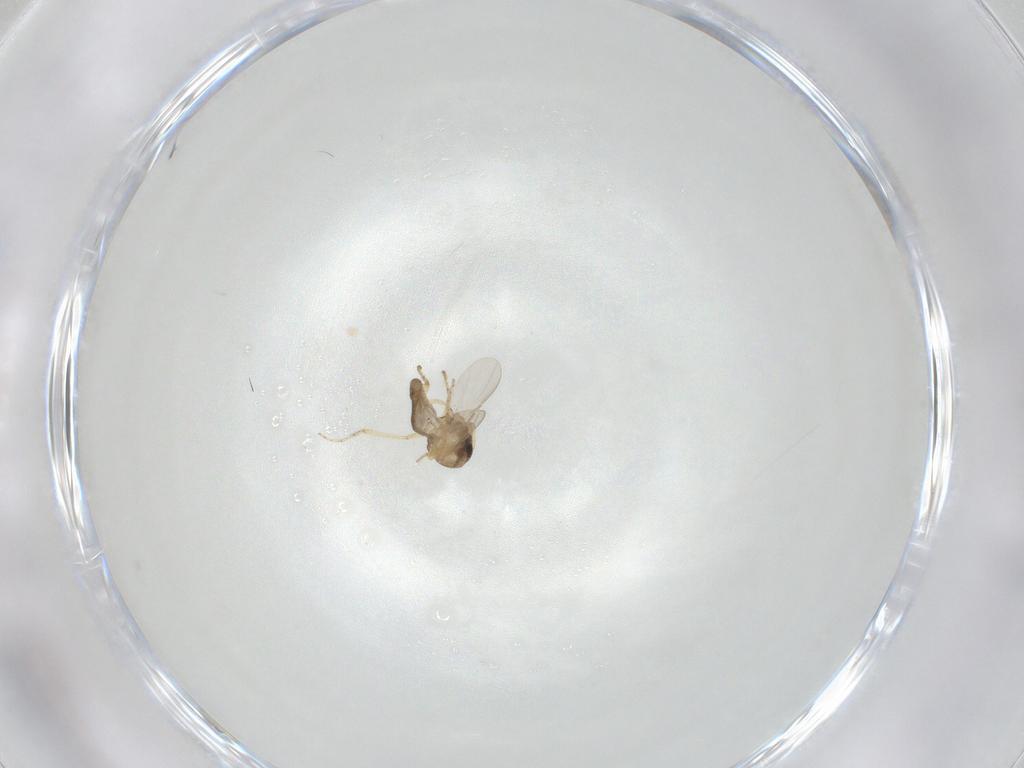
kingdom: Animalia
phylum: Arthropoda
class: Insecta
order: Diptera
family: Ceratopogonidae
